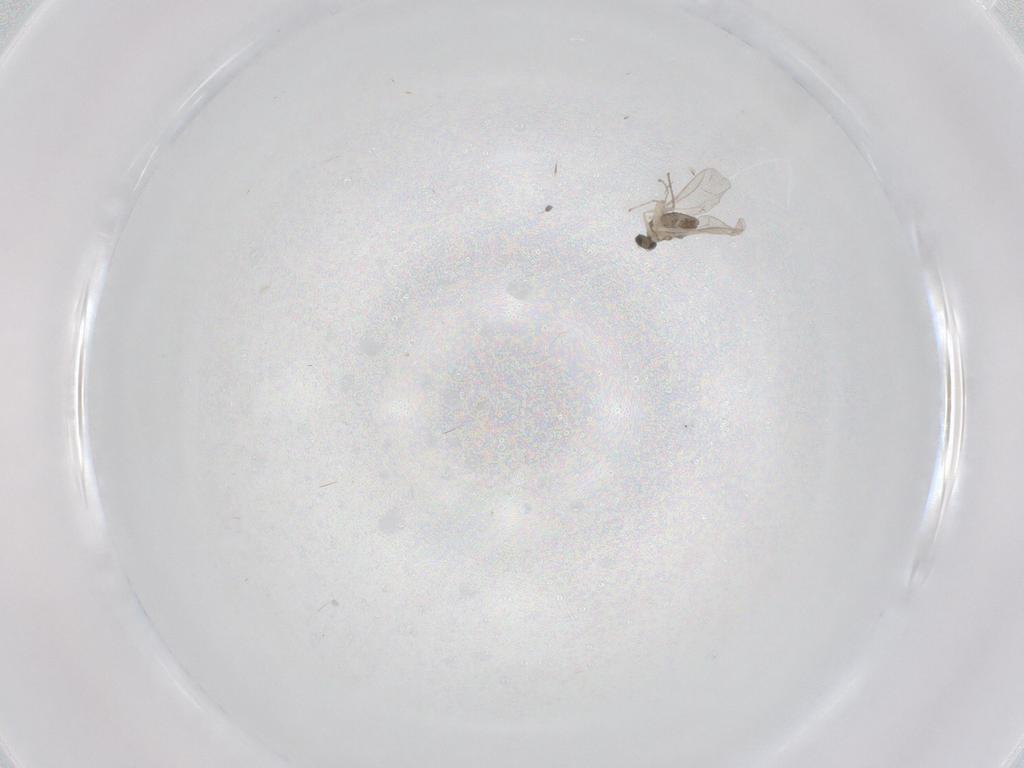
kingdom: Animalia
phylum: Arthropoda
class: Insecta
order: Diptera
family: Cecidomyiidae
